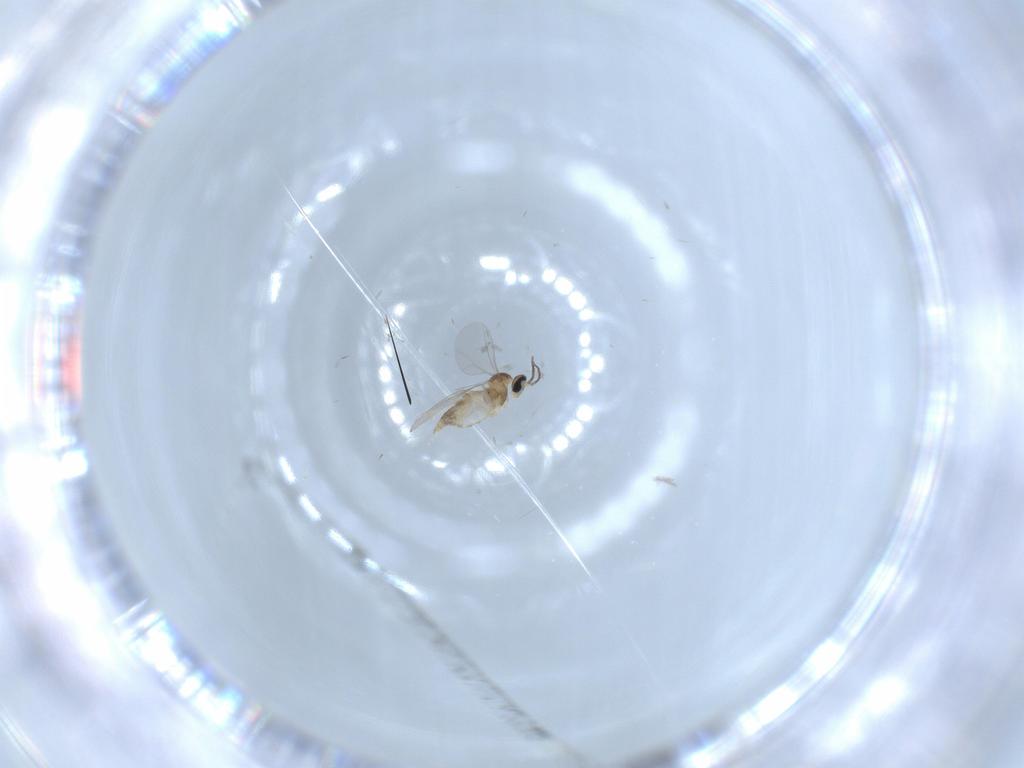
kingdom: Animalia
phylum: Arthropoda
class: Insecta
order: Diptera
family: Cecidomyiidae
